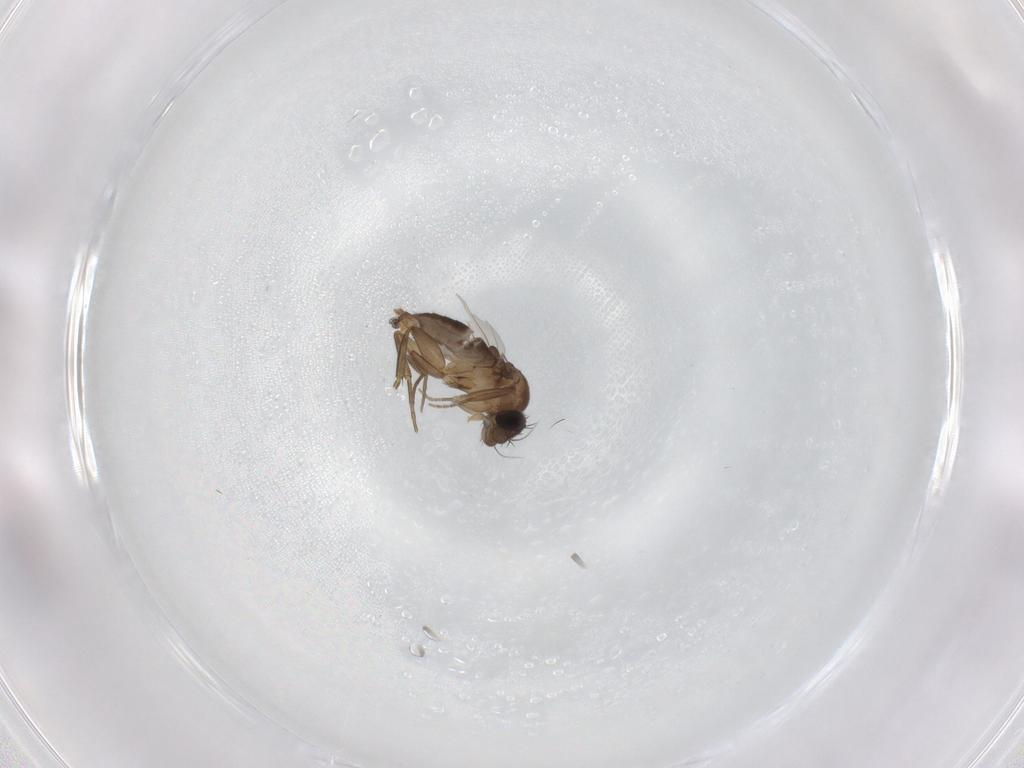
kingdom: Animalia
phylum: Arthropoda
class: Insecta
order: Diptera
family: Phoridae
